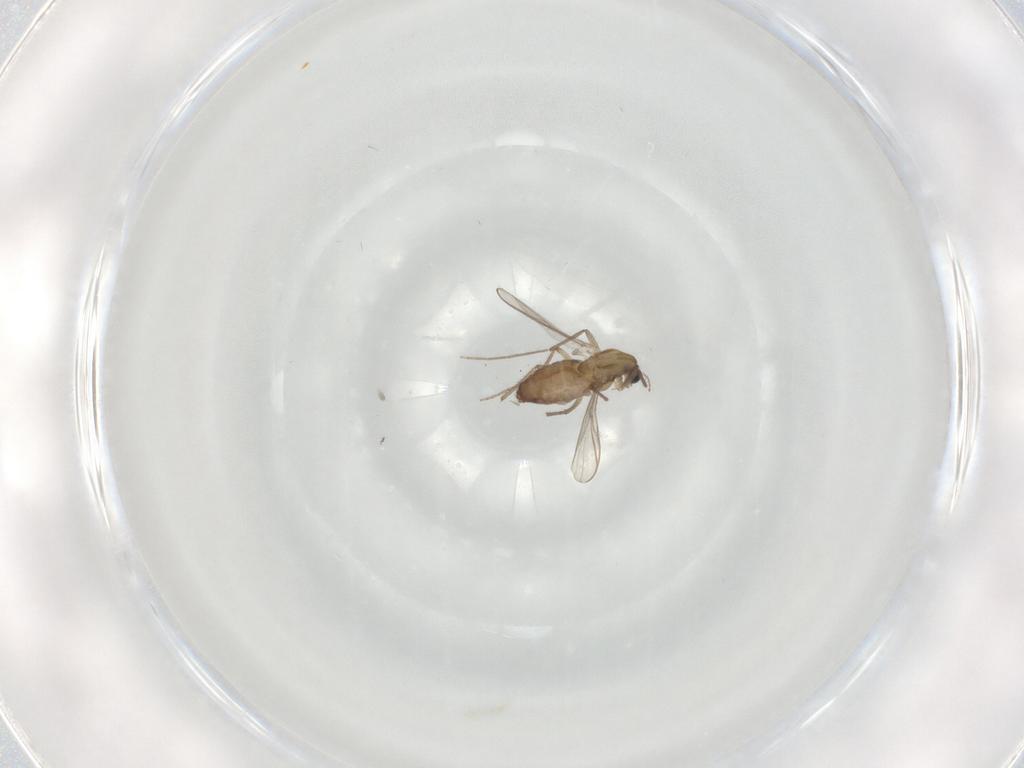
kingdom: Animalia
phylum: Arthropoda
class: Insecta
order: Diptera
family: Chironomidae
